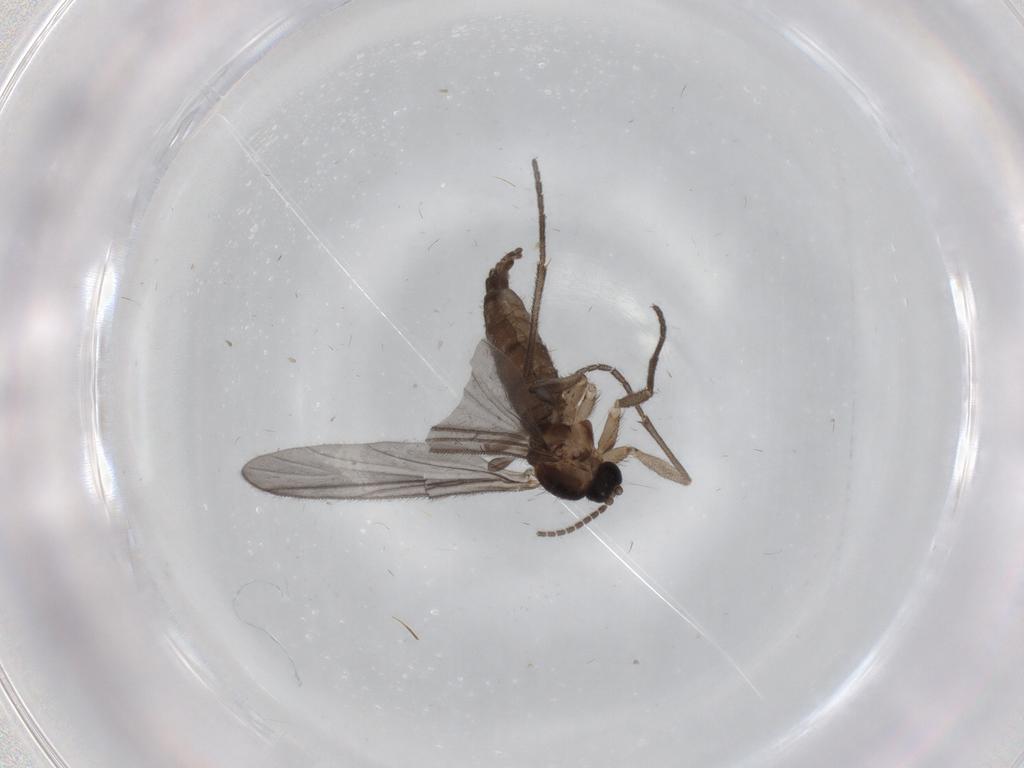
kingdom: Animalia
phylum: Arthropoda
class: Insecta
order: Diptera
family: Sciaridae
